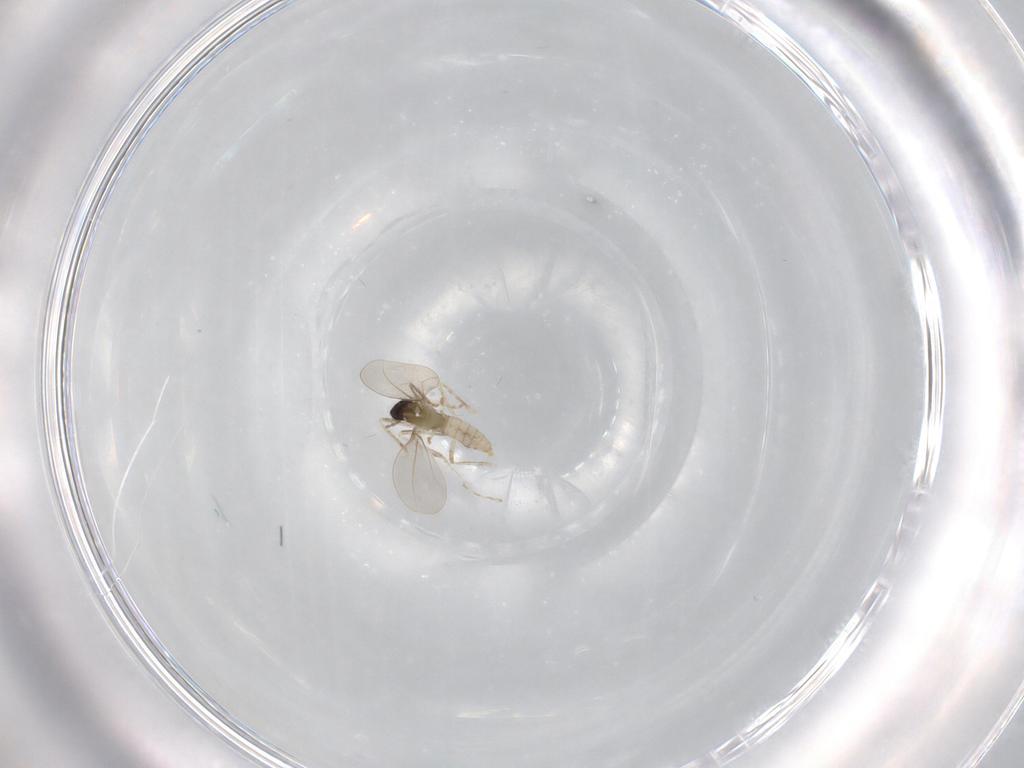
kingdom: Animalia
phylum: Arthropoda
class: Insecta
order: Diptera
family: Cecidomyiidae
